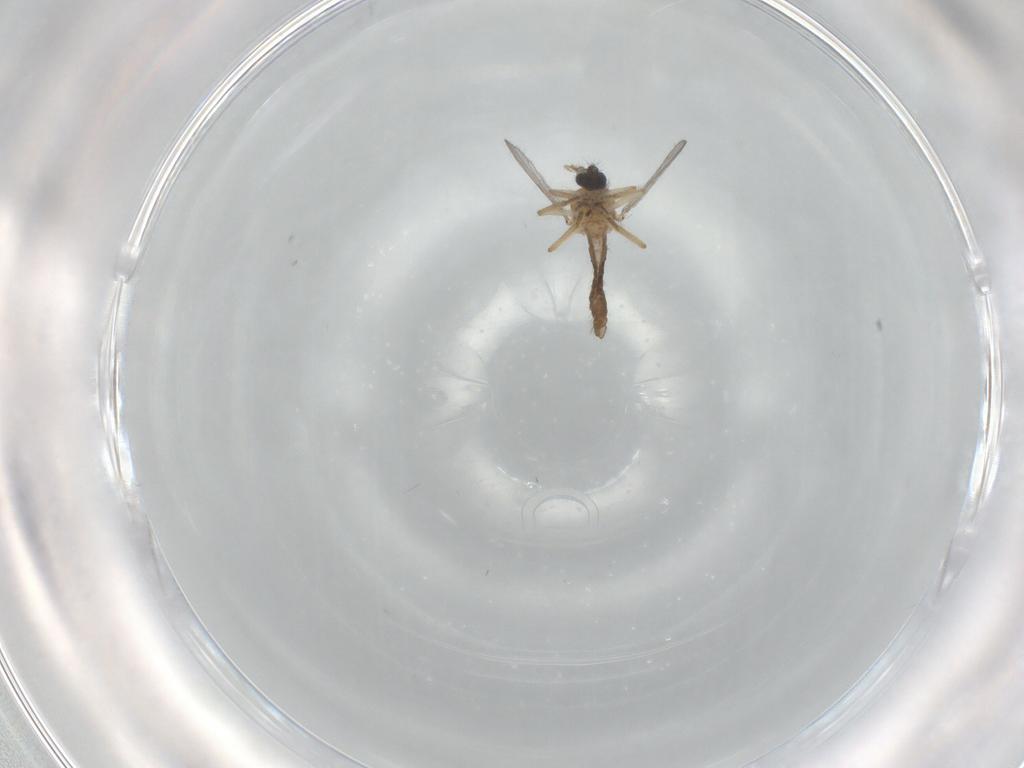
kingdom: Animalia
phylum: Arthropoda
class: Insecta
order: Diptera
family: Ceratopogonidae
